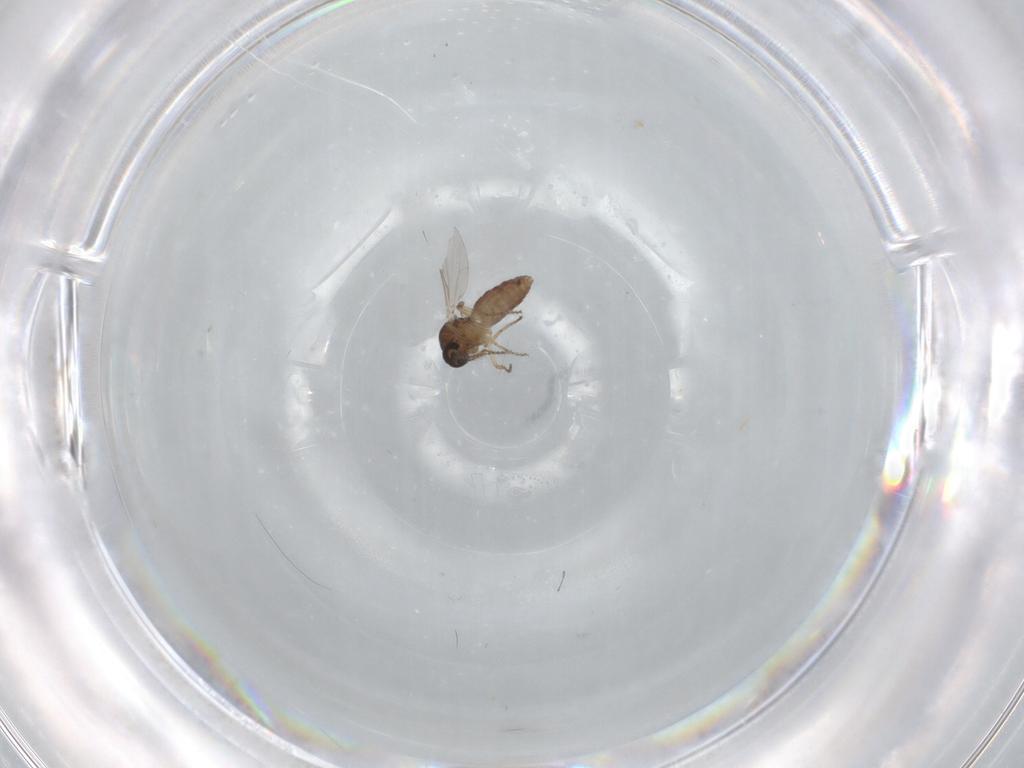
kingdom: Animalia
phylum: Arthropoda
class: Insecta
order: Diptera
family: Ceratopogonidae
